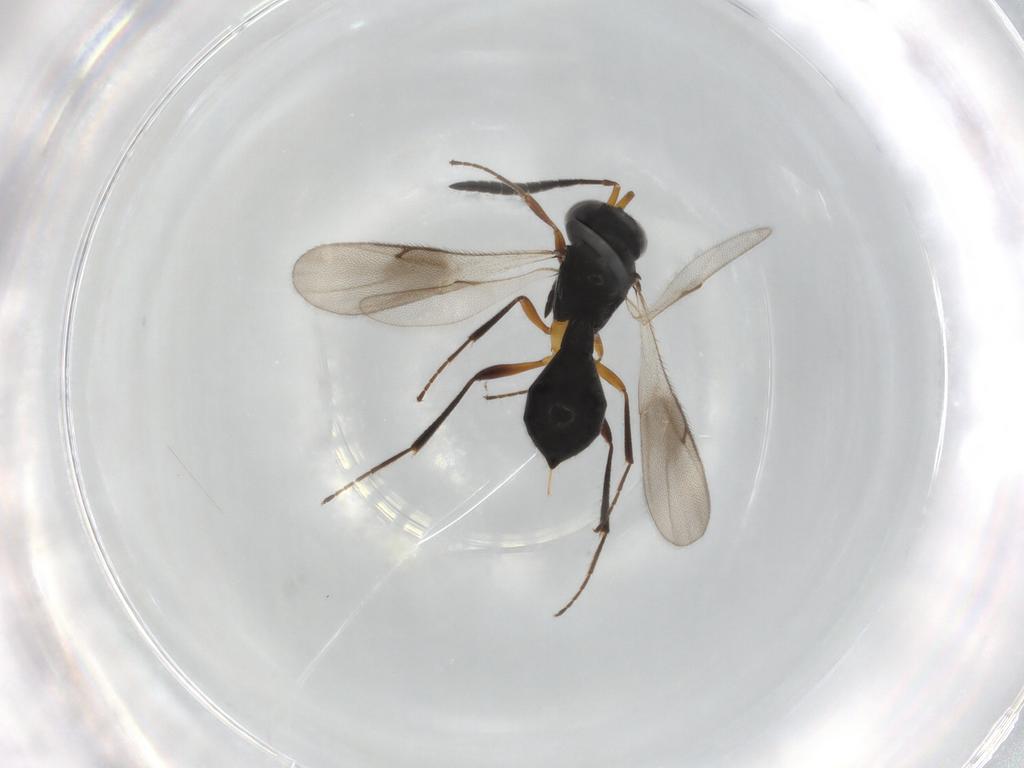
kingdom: Animalia
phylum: Arthropoda
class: Insecta
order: Hymenoptera
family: Scelionidae
